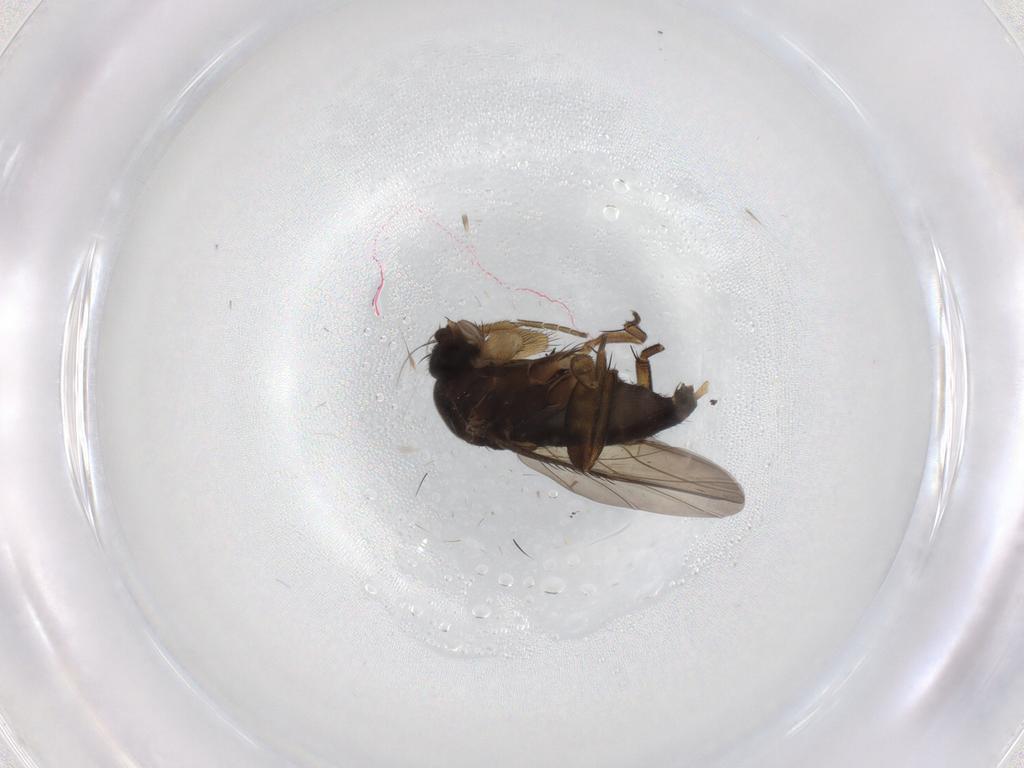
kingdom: Animalia
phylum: Arthropoda
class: Insecta
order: Diptera
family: Phoridae
